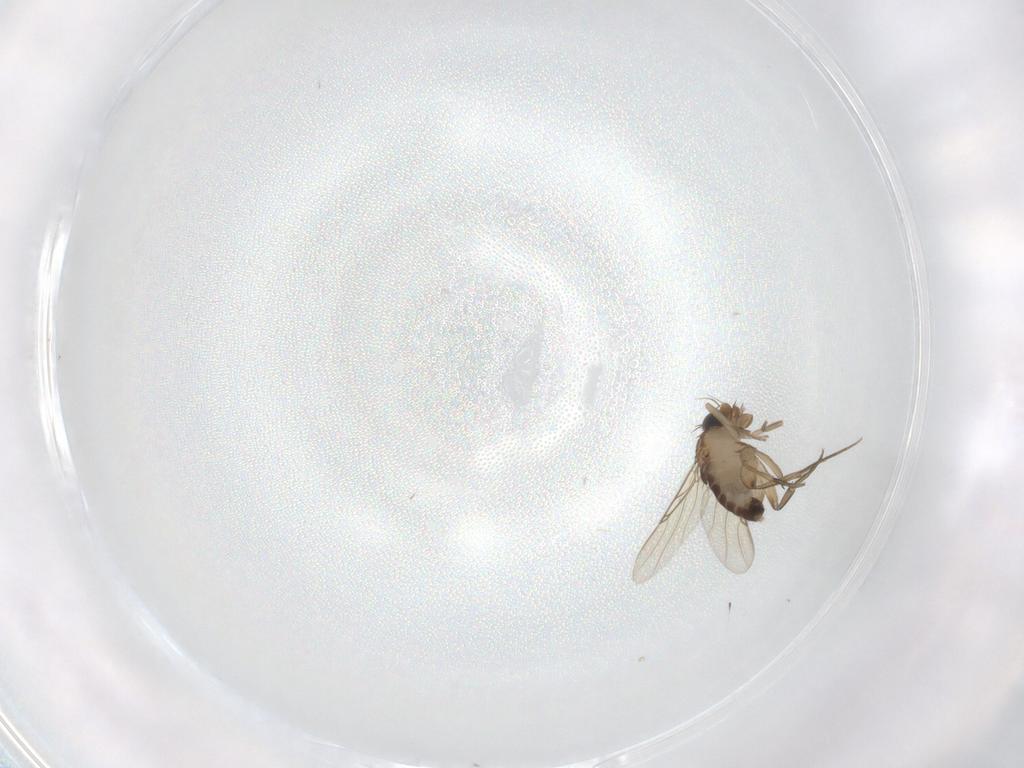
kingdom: Animalia
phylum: Arthropoda
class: Insecta
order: Diptera
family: Phoridae
